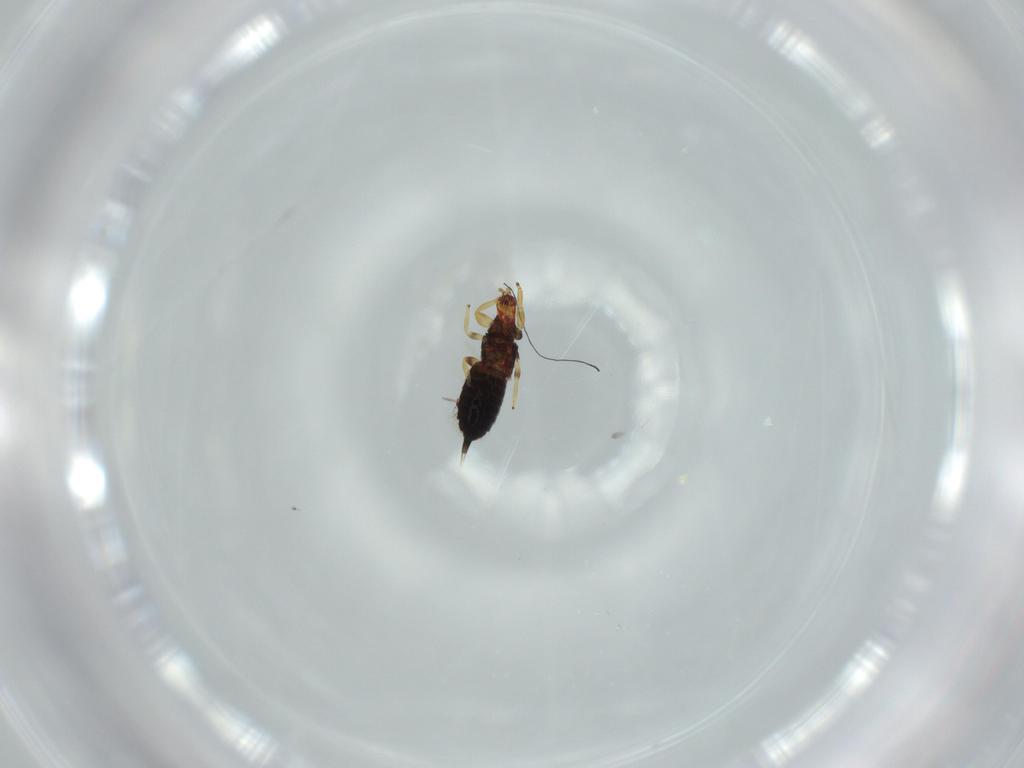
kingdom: Animalia
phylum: Arthropoda
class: Insecta
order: Thysanoptera
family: Phlaeothripidae
